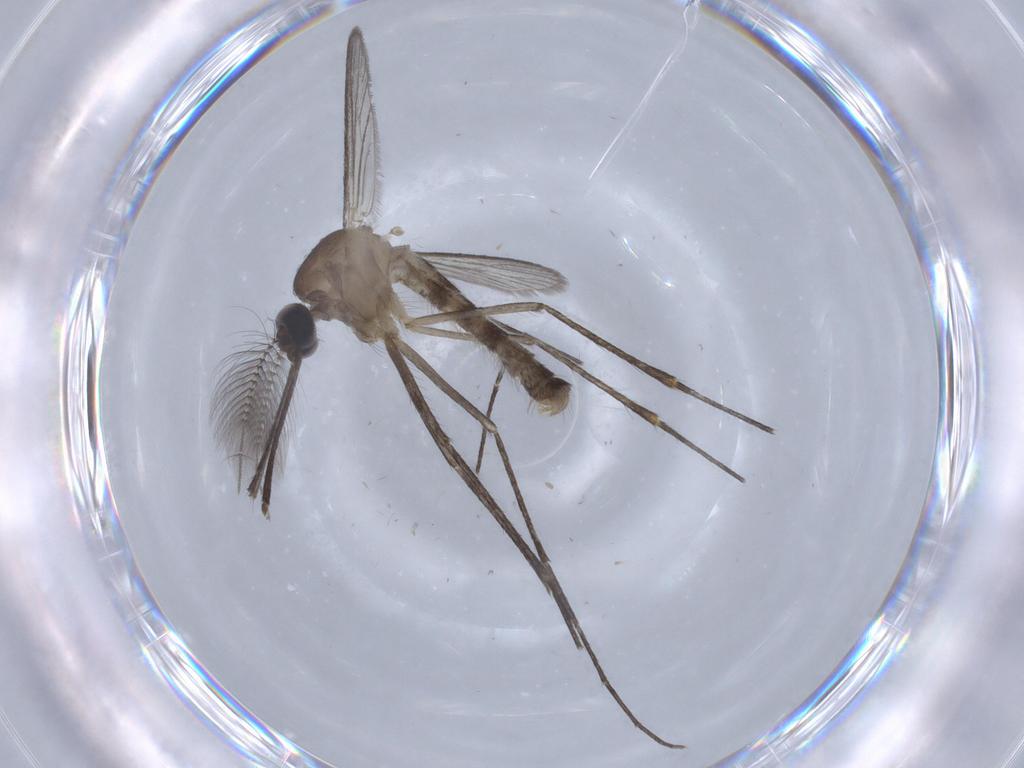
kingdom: Animalia
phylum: Arthropoda
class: Insecta
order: Diptera
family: Culicidae
